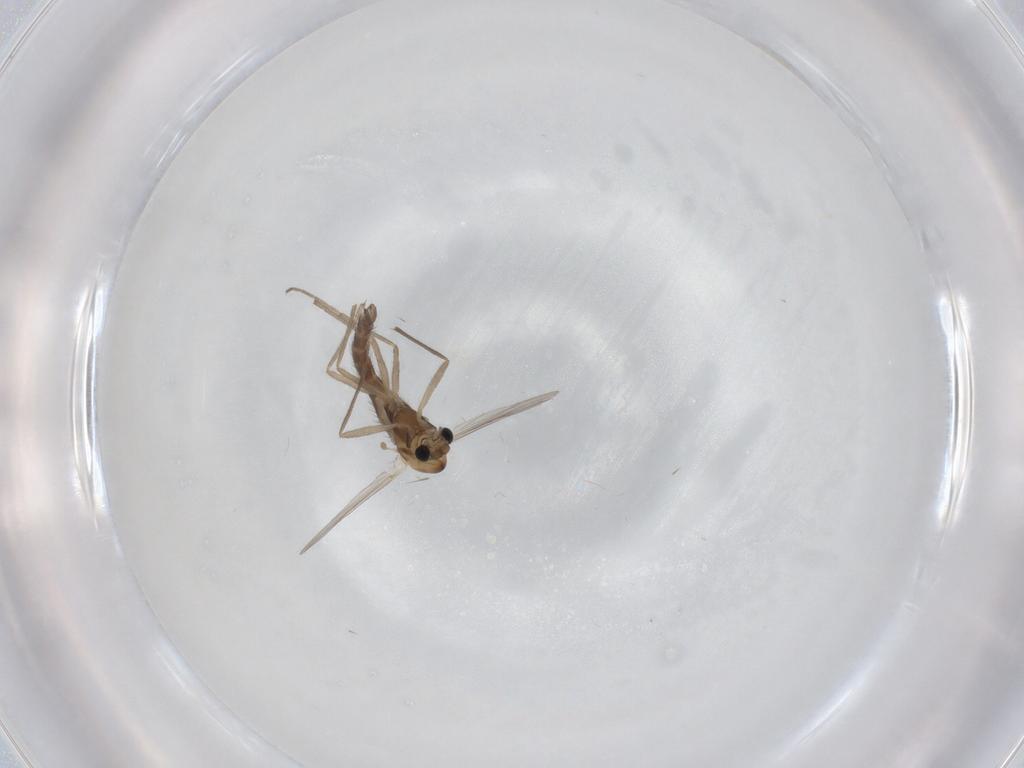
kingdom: Animalia
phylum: Arthropoda
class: Insecta
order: Diptera
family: Chironomidae
